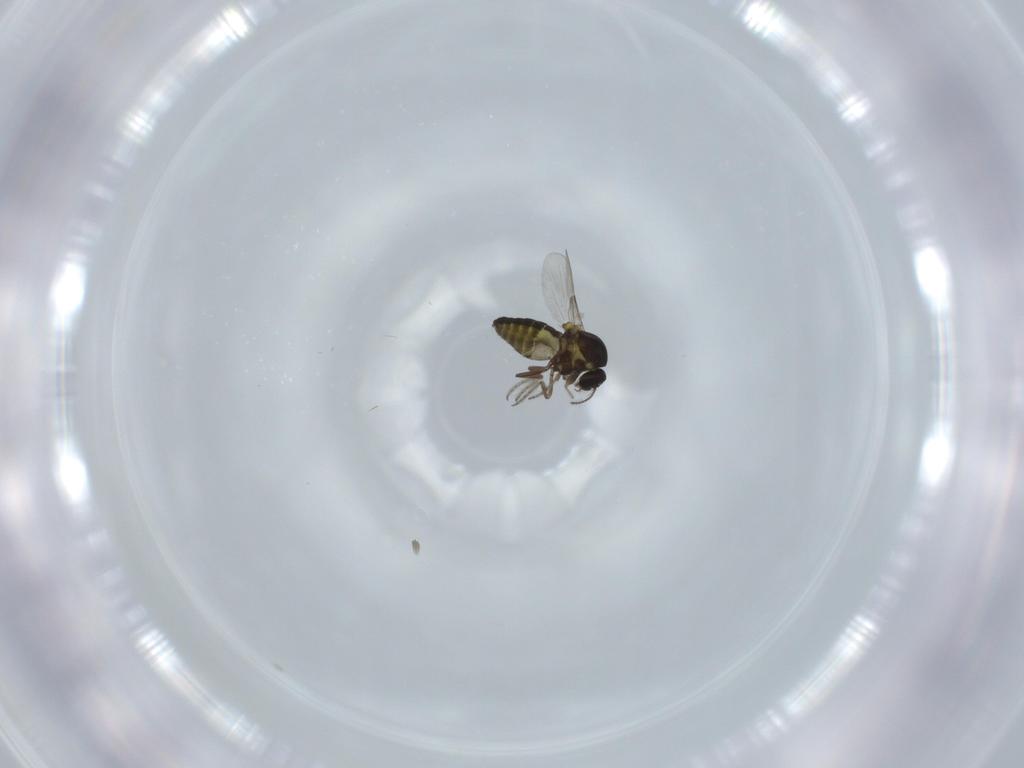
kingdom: Animalia
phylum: Arthropoda
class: Insecta
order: Diptera
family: Ceratopogonidae
